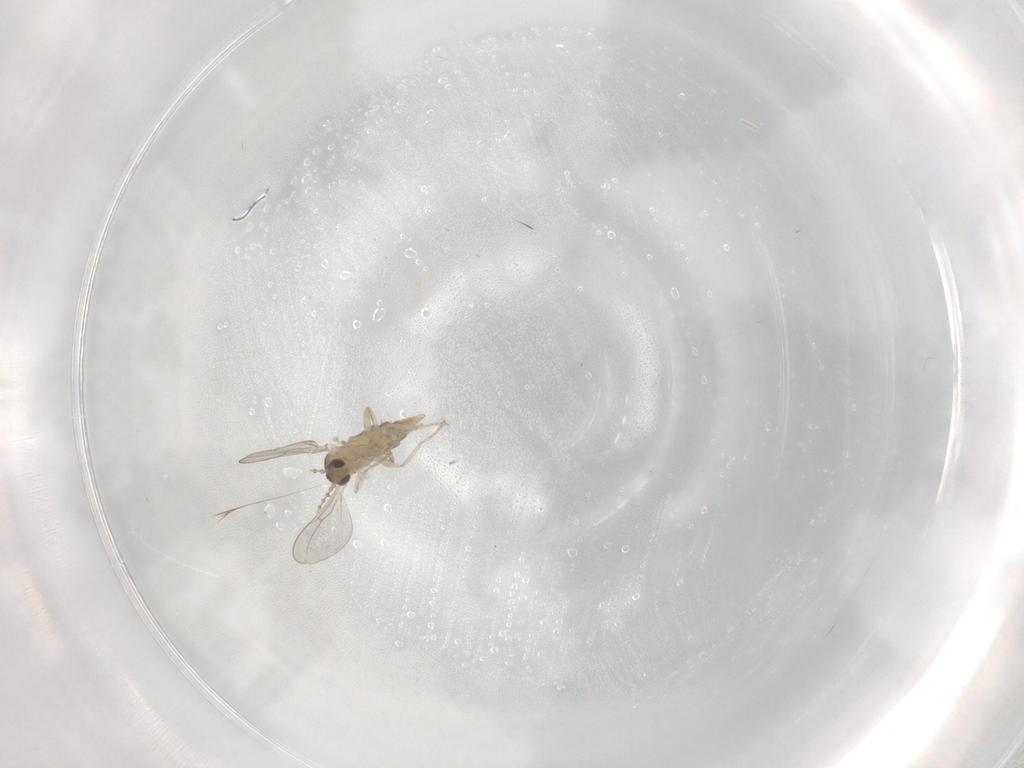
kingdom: Animalia
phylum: Arthropoda
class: Insecta
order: Diptera
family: Cecidomyiidae
